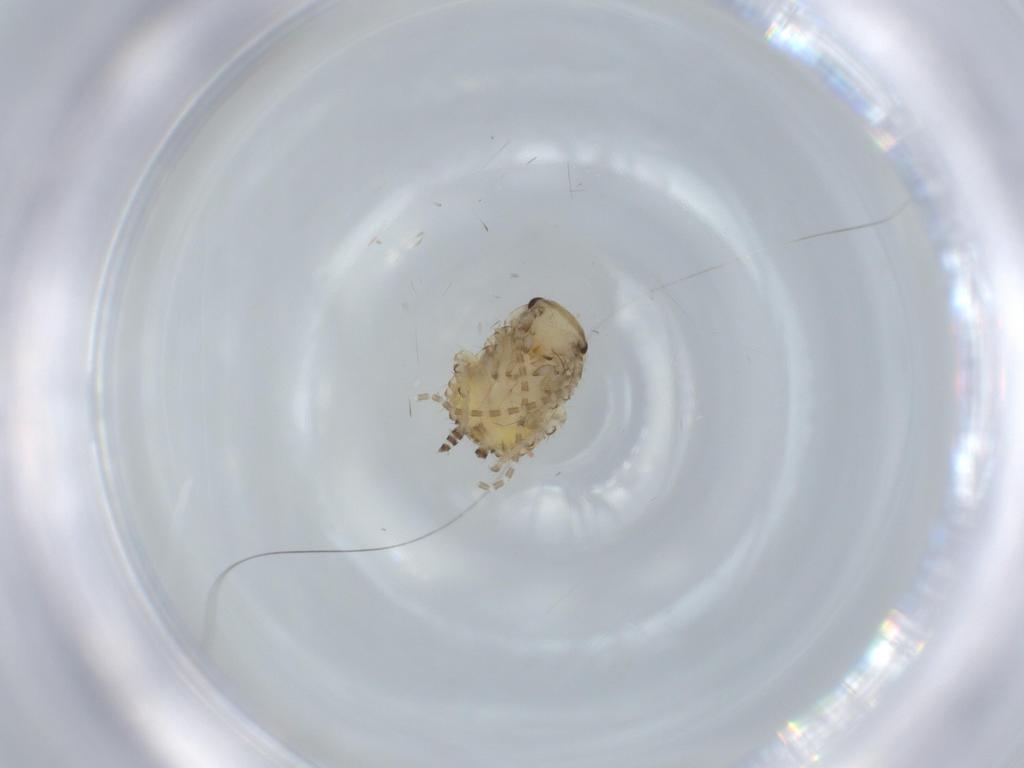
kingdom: Animalia
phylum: Arthropoda
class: Insecta
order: Blattodea
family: Ectobiidae
